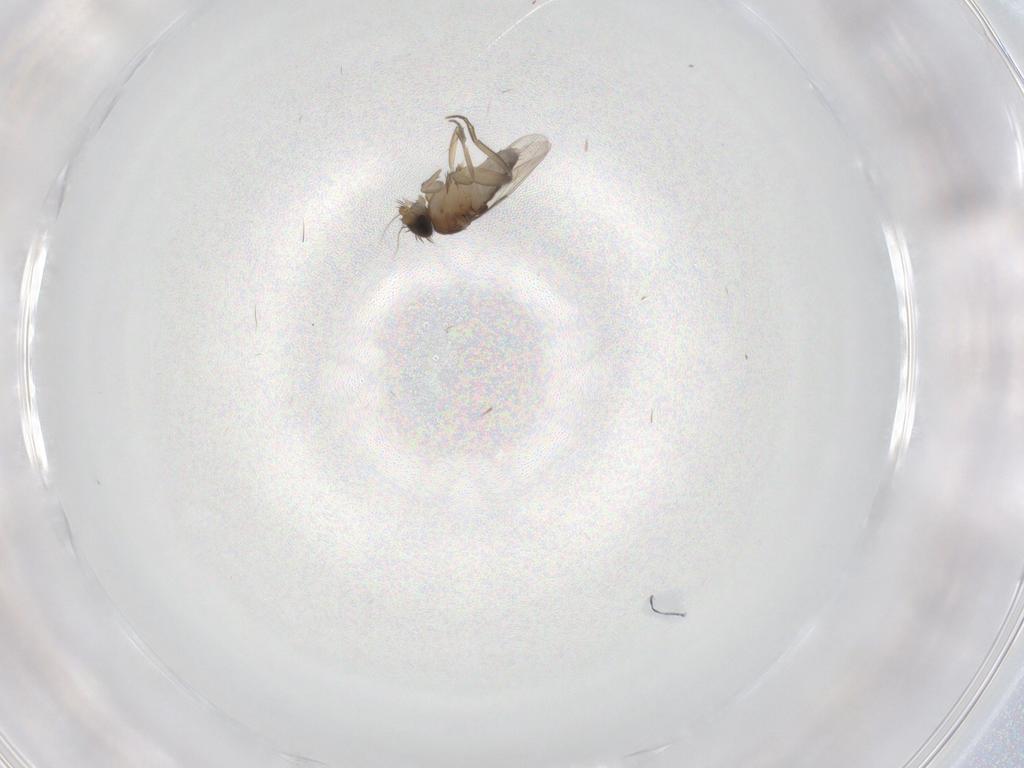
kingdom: Animalia
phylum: Arthropoda
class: Insecta
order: Diptera
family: Phoridae
